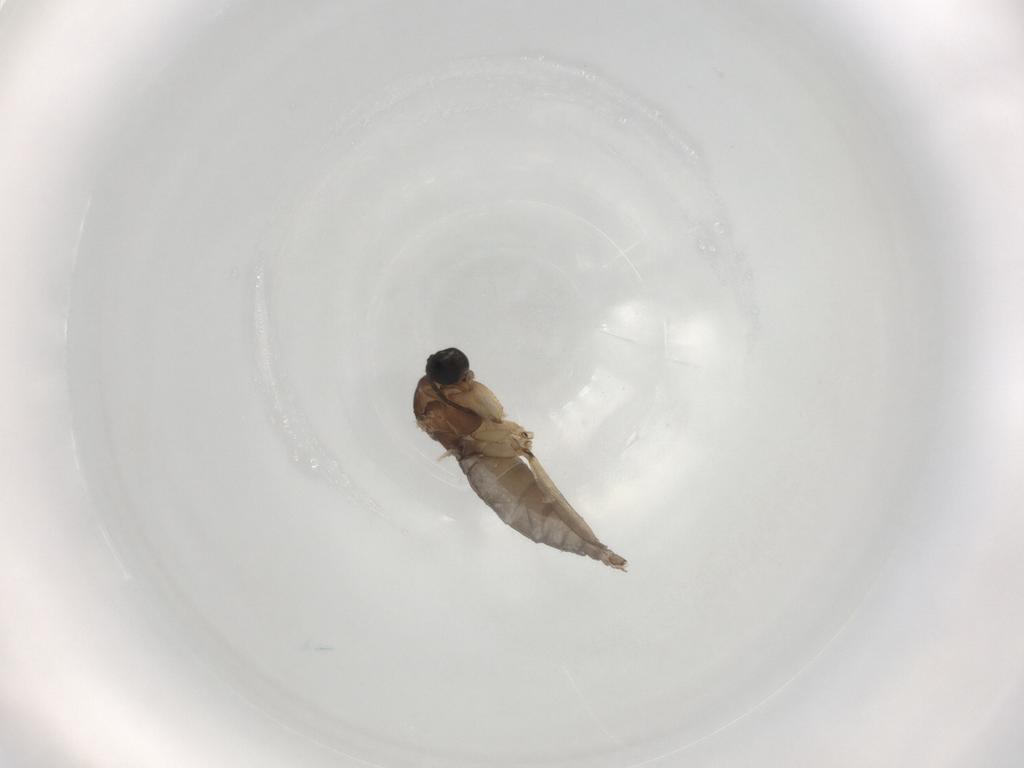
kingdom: Animalia
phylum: Arthropoda
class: Insecta
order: Diptera
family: Sciaridae
